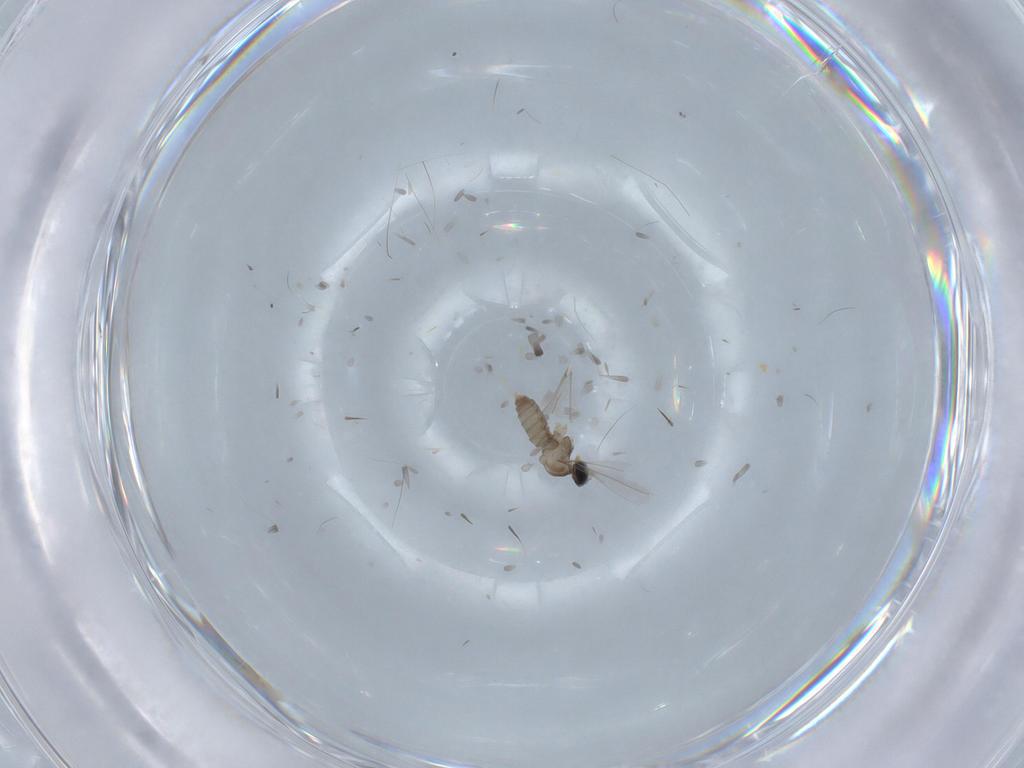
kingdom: Animalia
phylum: Arthropoda
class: Insecta
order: Diptera
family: Cecidomyiidae
